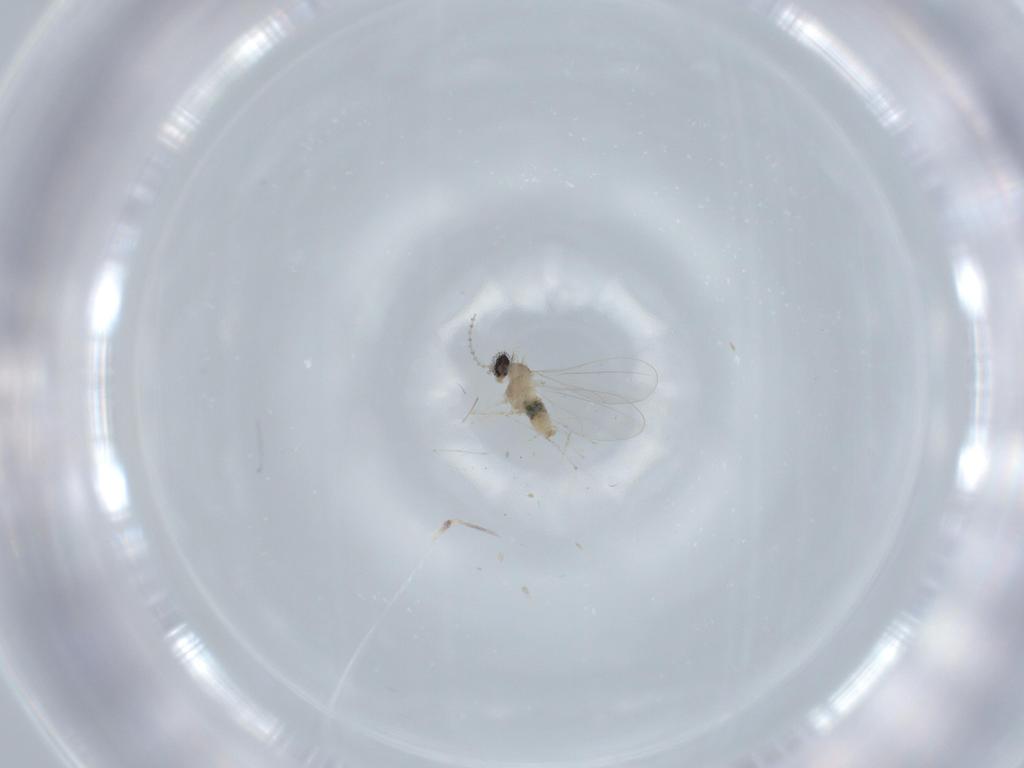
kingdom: Animalia
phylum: Arthropoda
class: Insecta
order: Diptera
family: Cecidomyiidae
